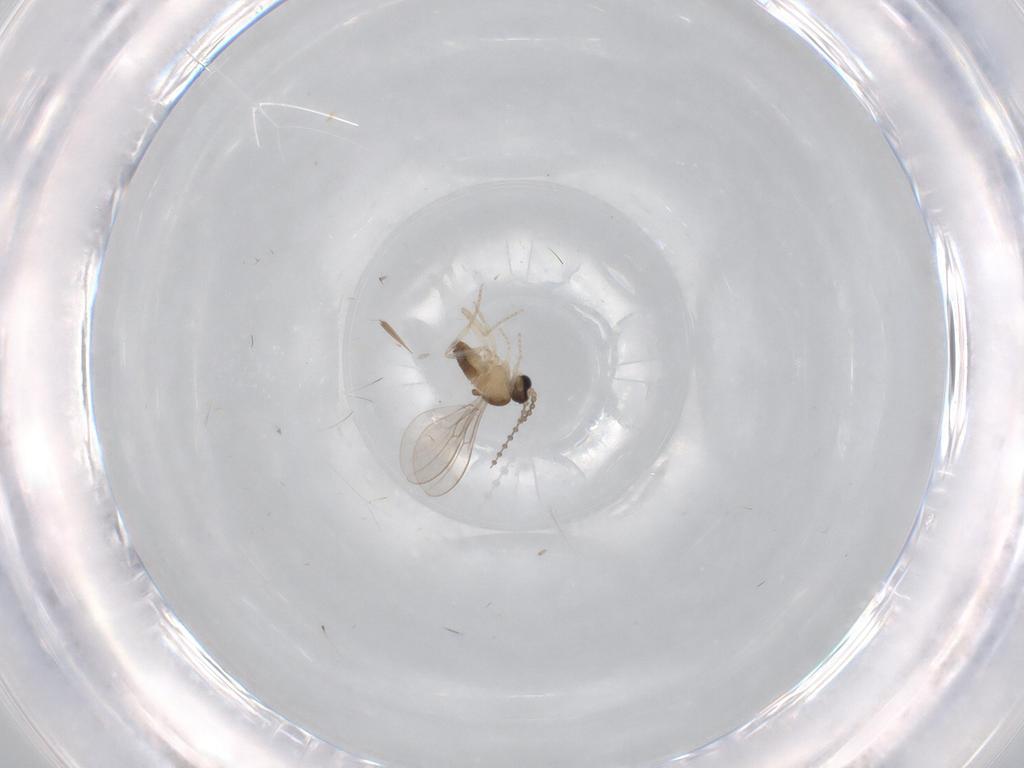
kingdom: Animalia
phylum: Arthropoda
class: Insecta
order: Diptera
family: Cecidomyiidae
